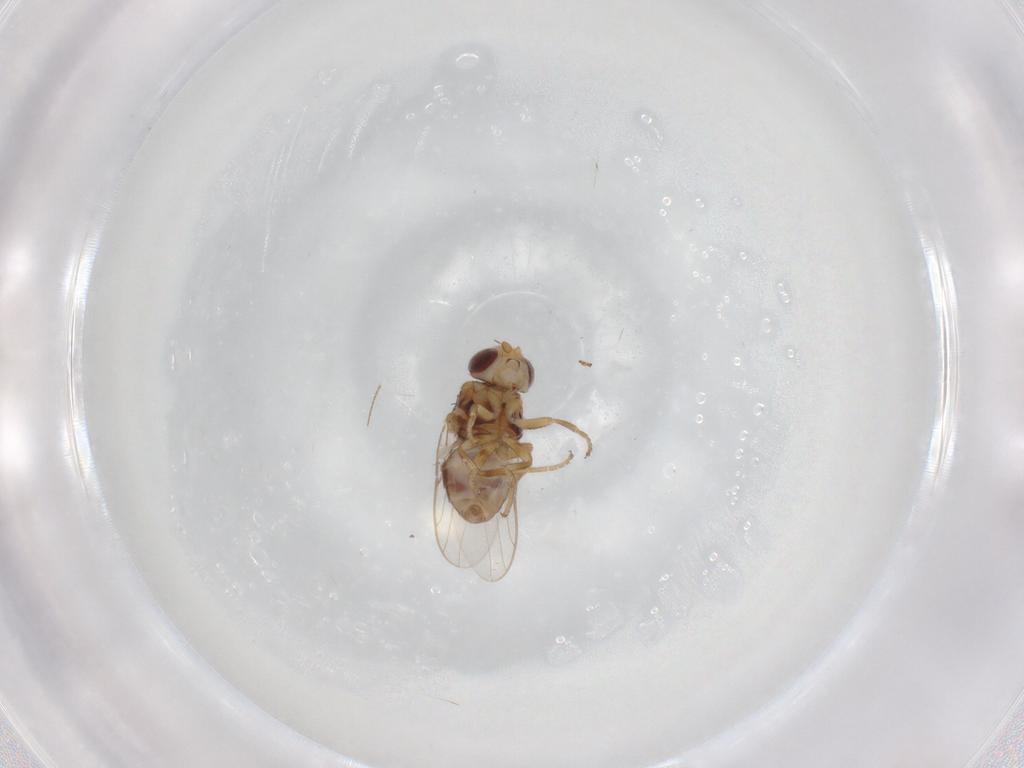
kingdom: Animalia
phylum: Arthropoda
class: Insecta
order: Diptera
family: Chloropidae
